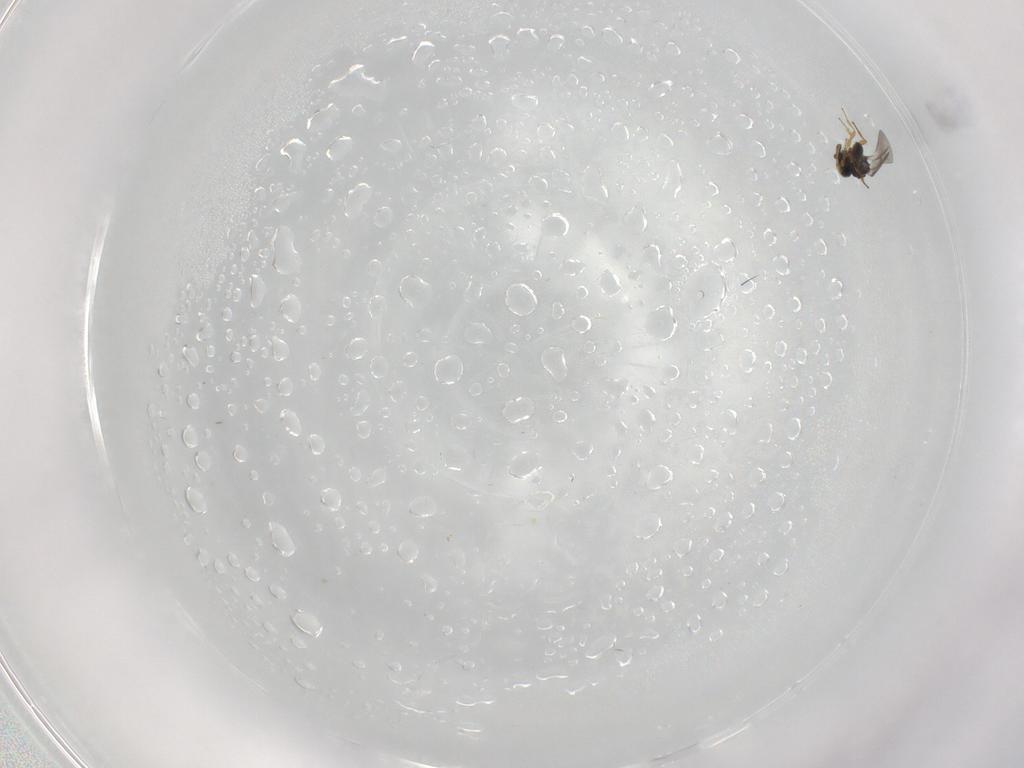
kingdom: Animalia
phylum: Arthropoda
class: Insecta
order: Hymenoptera
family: Platygastridae
